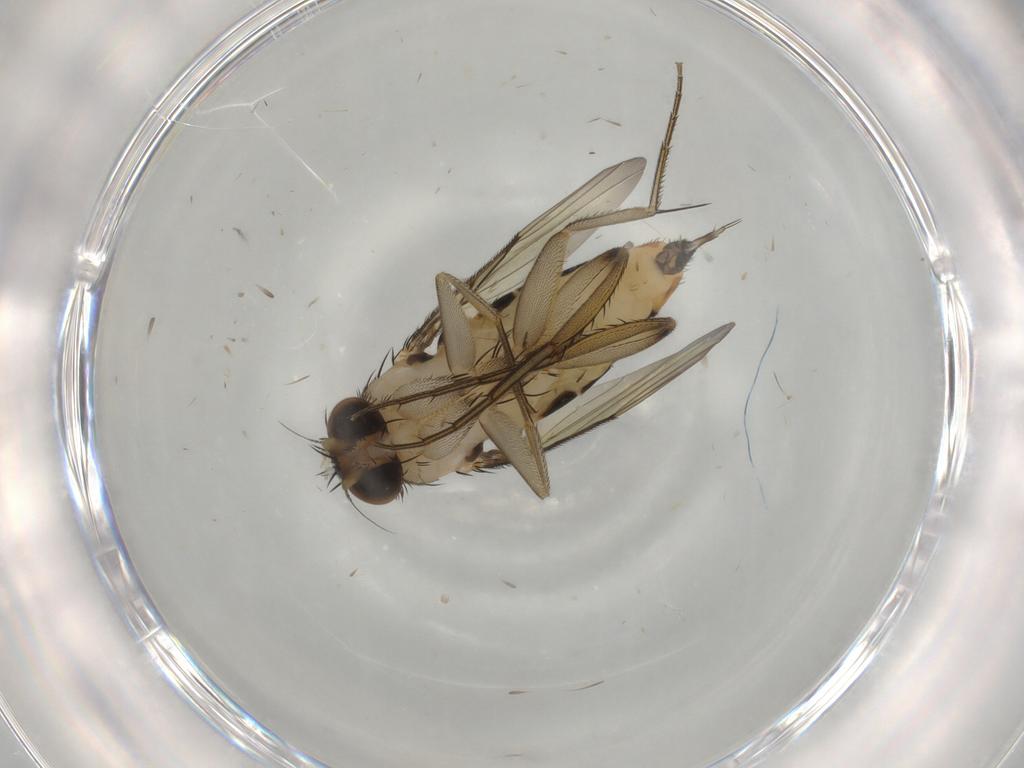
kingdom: Animalia
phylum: Arthropoda
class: Insecta
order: Diptera
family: Phoridae
